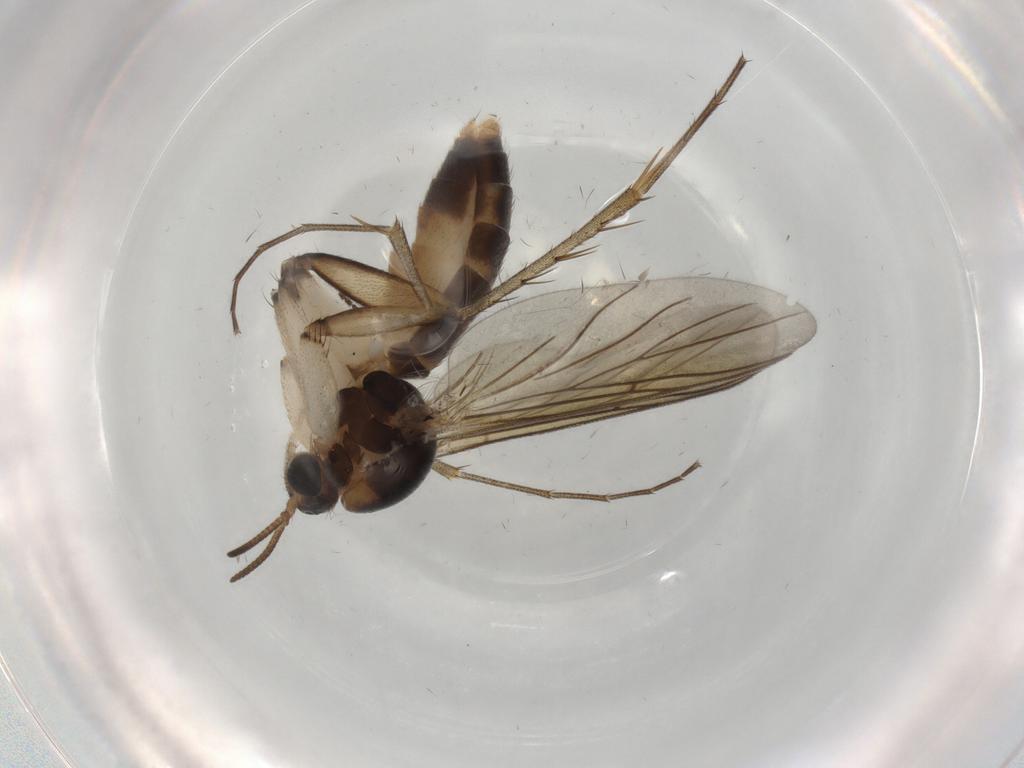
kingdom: Animalia
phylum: Arthropoda
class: Insecta
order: Diptera
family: Mycetophilidae
